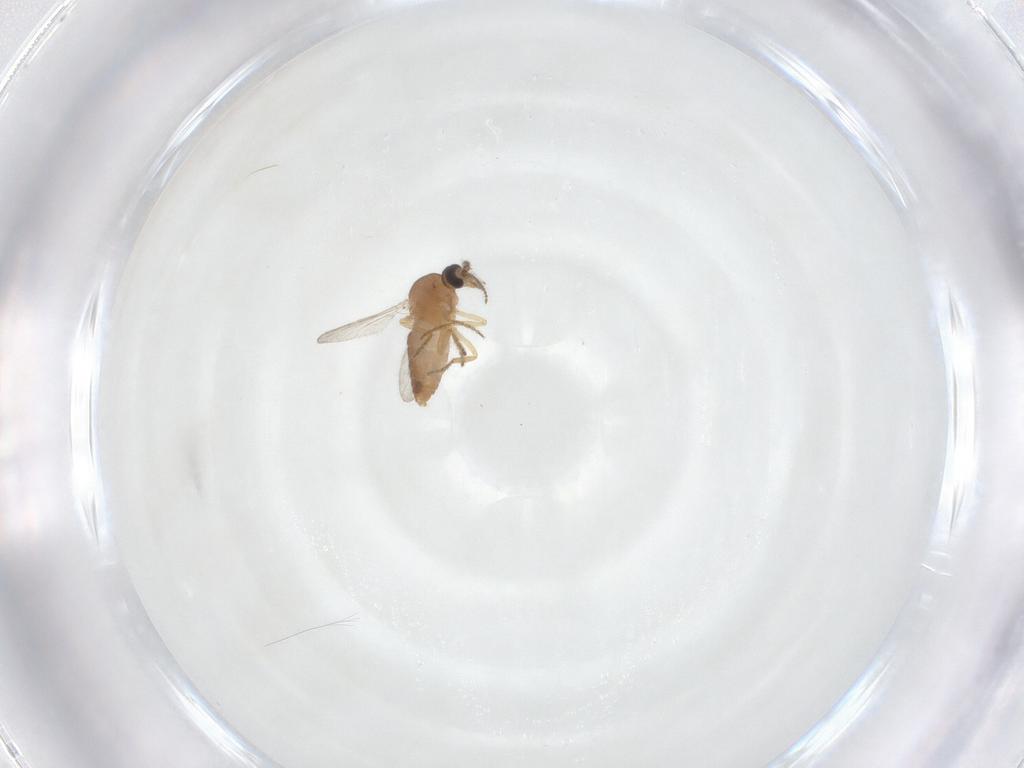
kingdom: Animalia
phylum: Arthropoda
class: Insecta
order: Diptera
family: Ceratopogonidae
